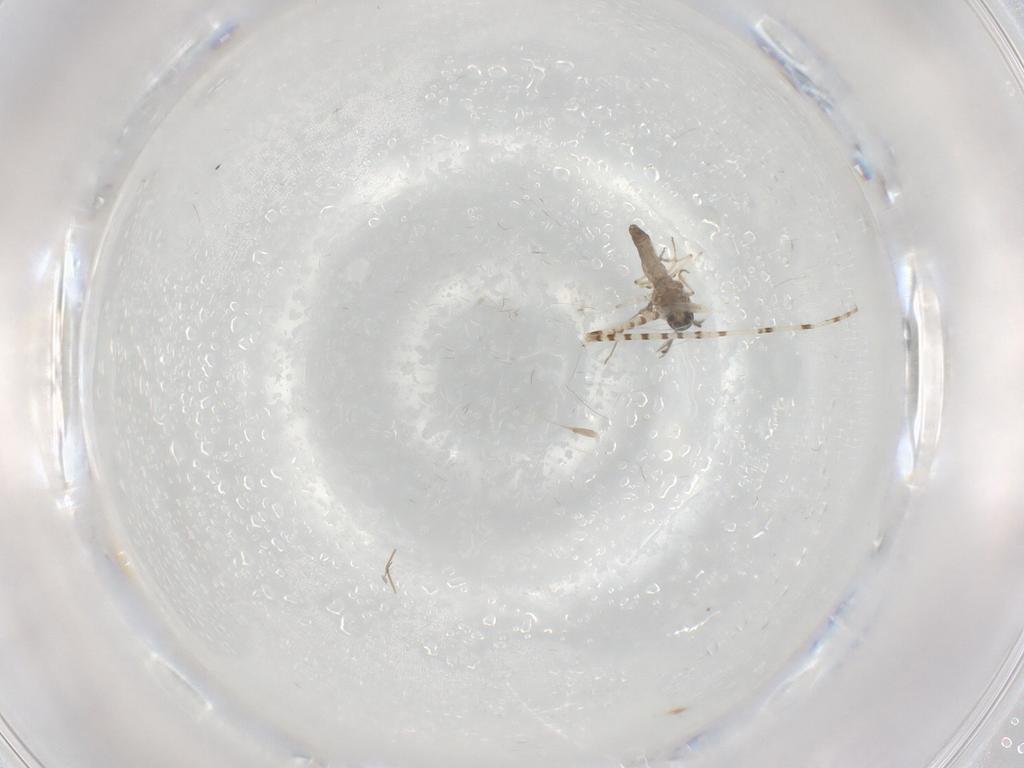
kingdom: Animalia
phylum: Arthropoda
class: Insecta
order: Diptera
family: Chaoboridae
